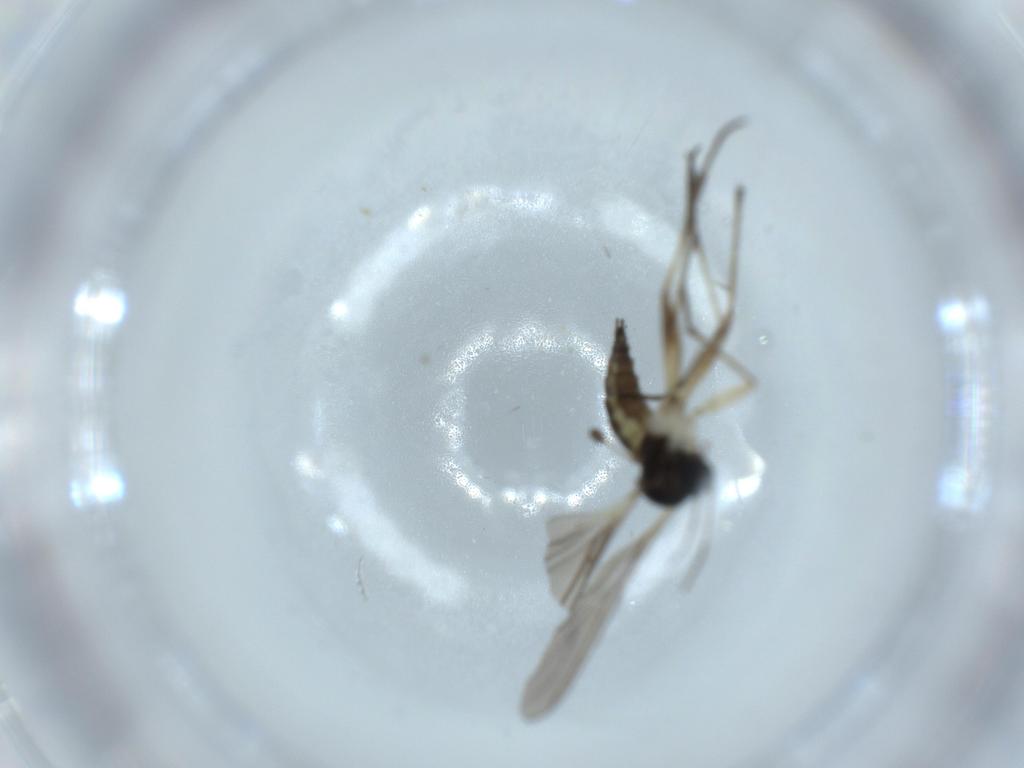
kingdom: Animalia
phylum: Arthropoda
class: Insecta
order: Diptera
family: Sciaridae
